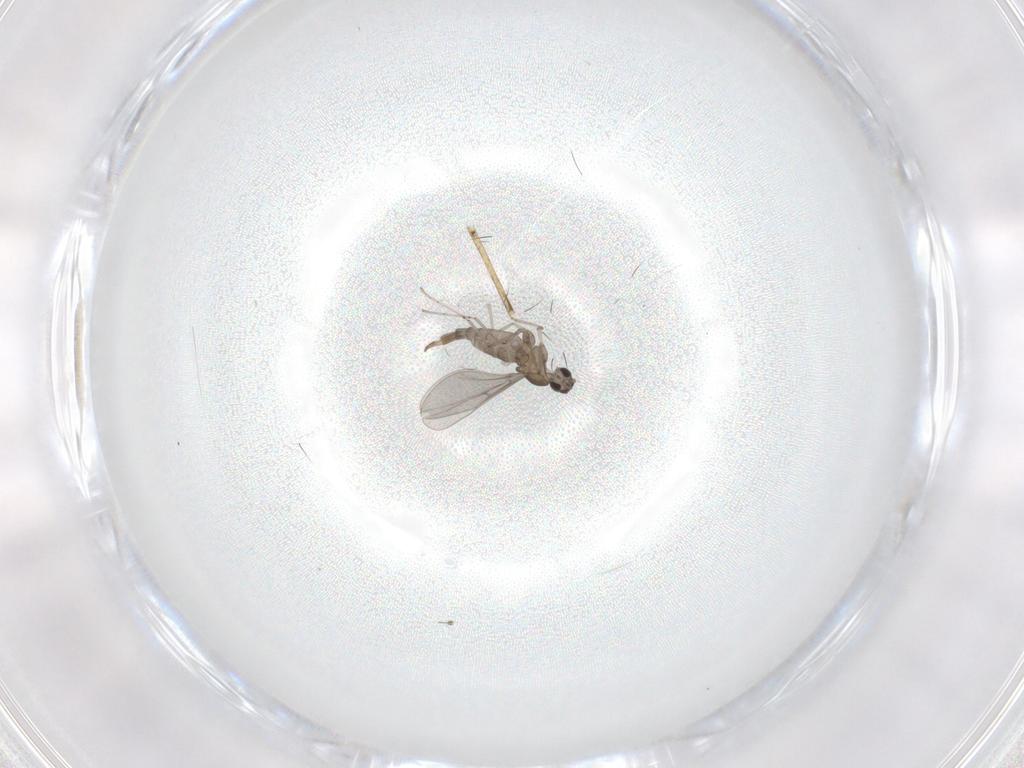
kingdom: Animalia
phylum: Arthropoda
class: Insecta
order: Diptera
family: Cecidomyiidae
